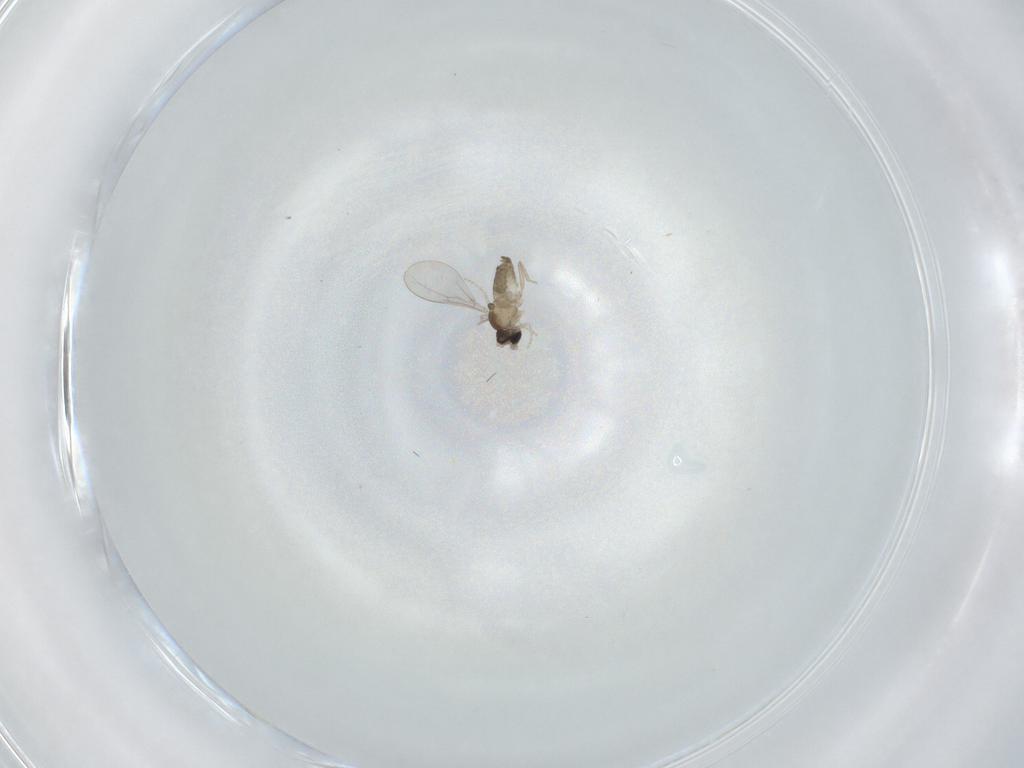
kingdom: Animalia
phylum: Arthropoda
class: Insecta
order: Diptera
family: Cecidomyiidae
